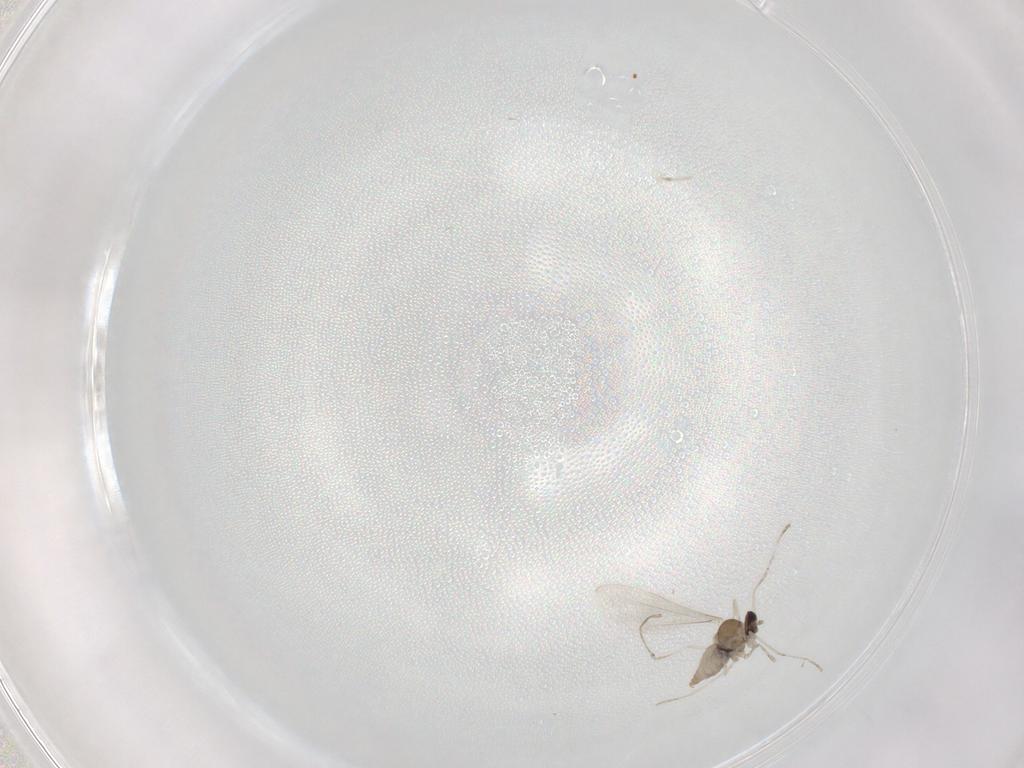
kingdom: Animalia
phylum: Arthropoda
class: Insecta
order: Diptera
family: Cecidomyiidae
